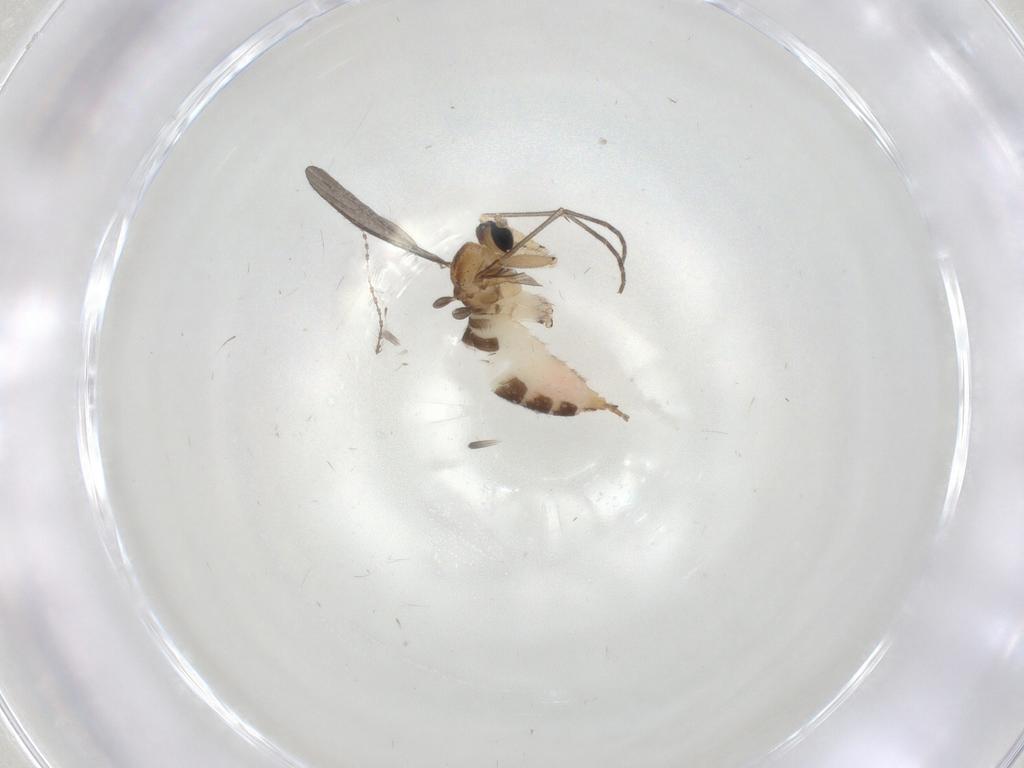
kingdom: Animalia
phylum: Arthropoda
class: Insecta
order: Diptera
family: Sciaridae
